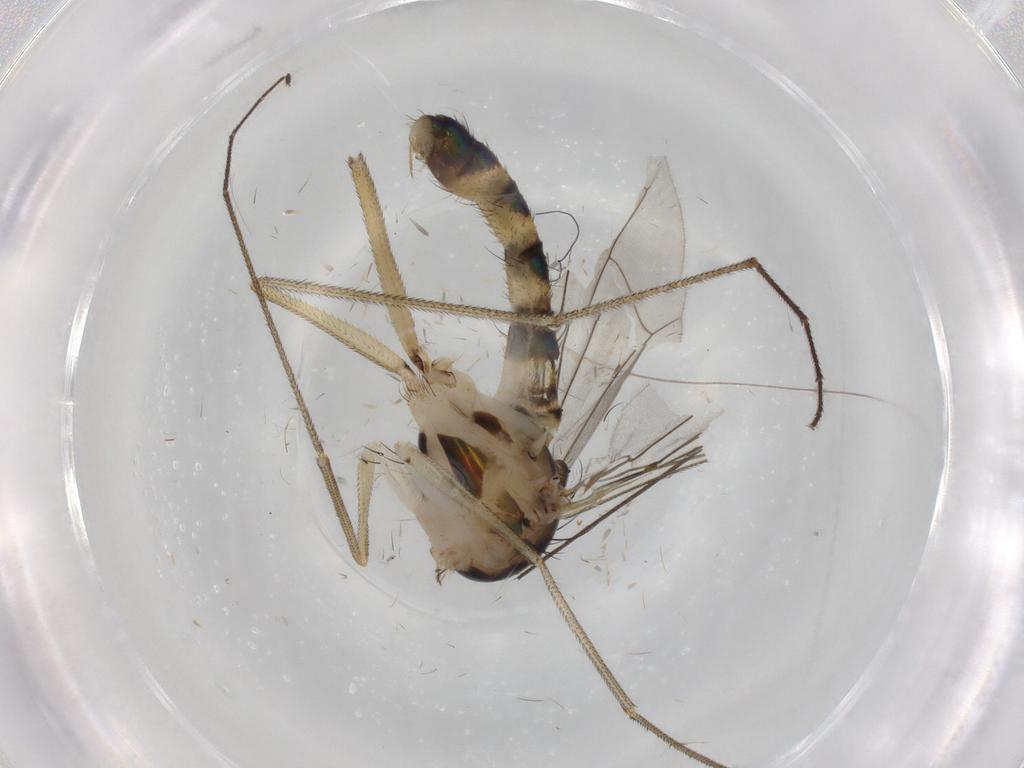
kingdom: Animalia
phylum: Arthropoda
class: Insecta
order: Diptera
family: Dolichopodidae
